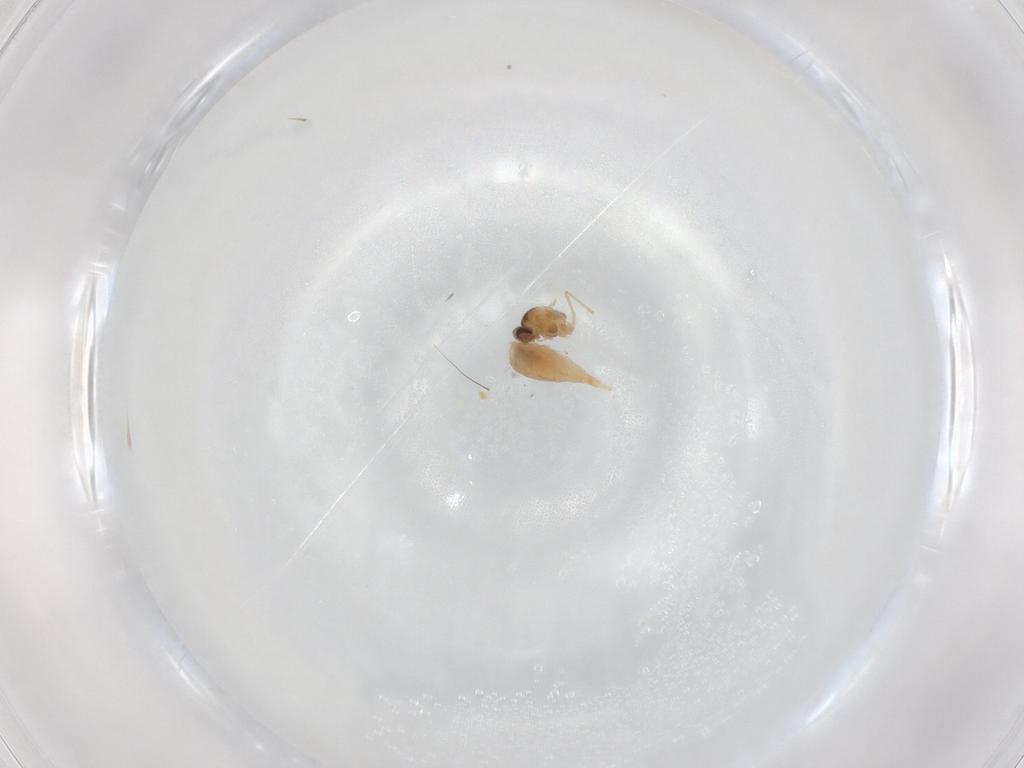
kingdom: Animalia
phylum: Arthropoda
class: Insecta
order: Diptera
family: Cecidomyiidae
